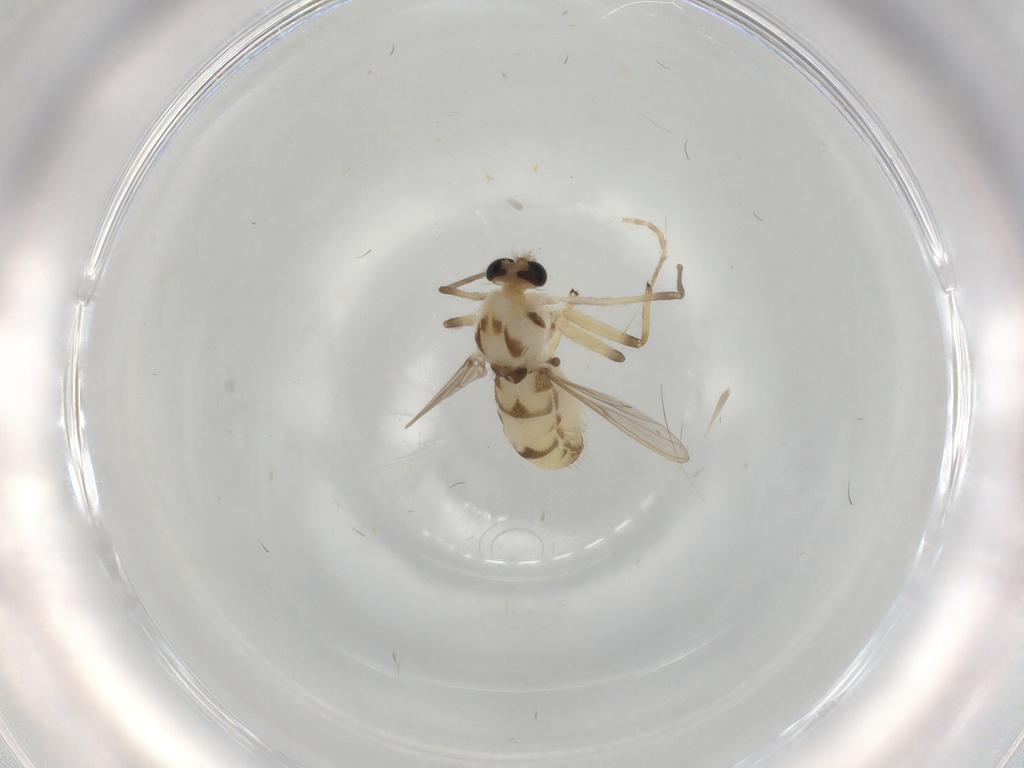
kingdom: Animalia
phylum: Arthropoda
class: Insecta
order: Diptera
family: Chironomidae
